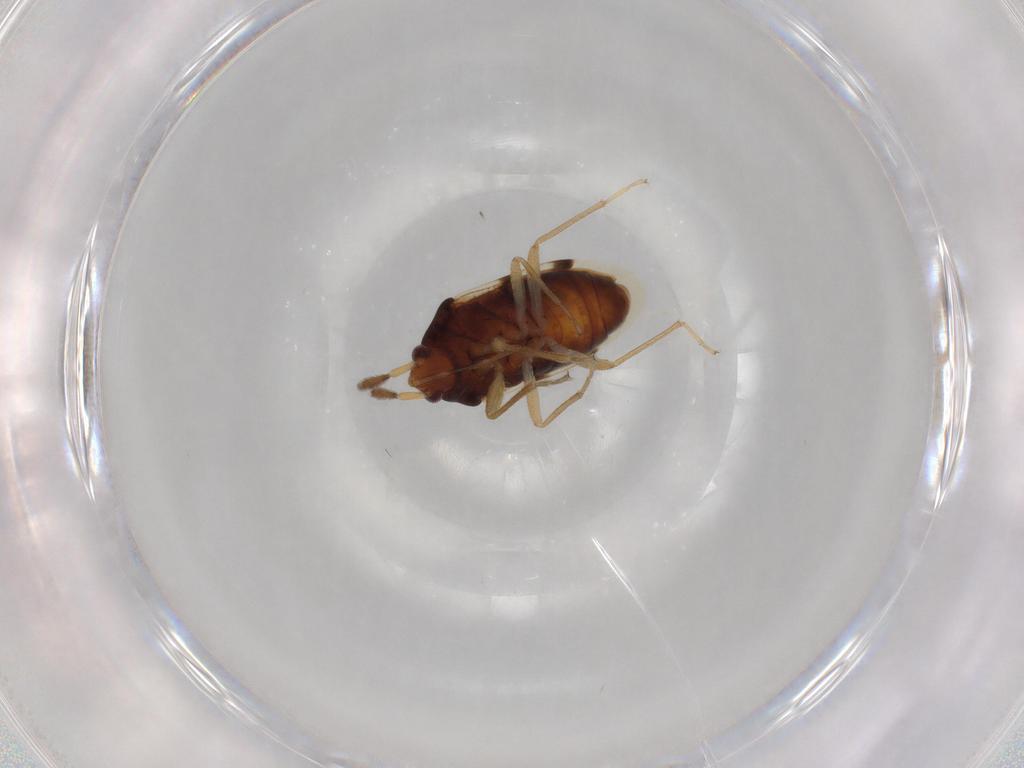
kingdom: Animalia
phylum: Arthropoda
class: Insecta
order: Hemiptera
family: Rhyparochromidae
